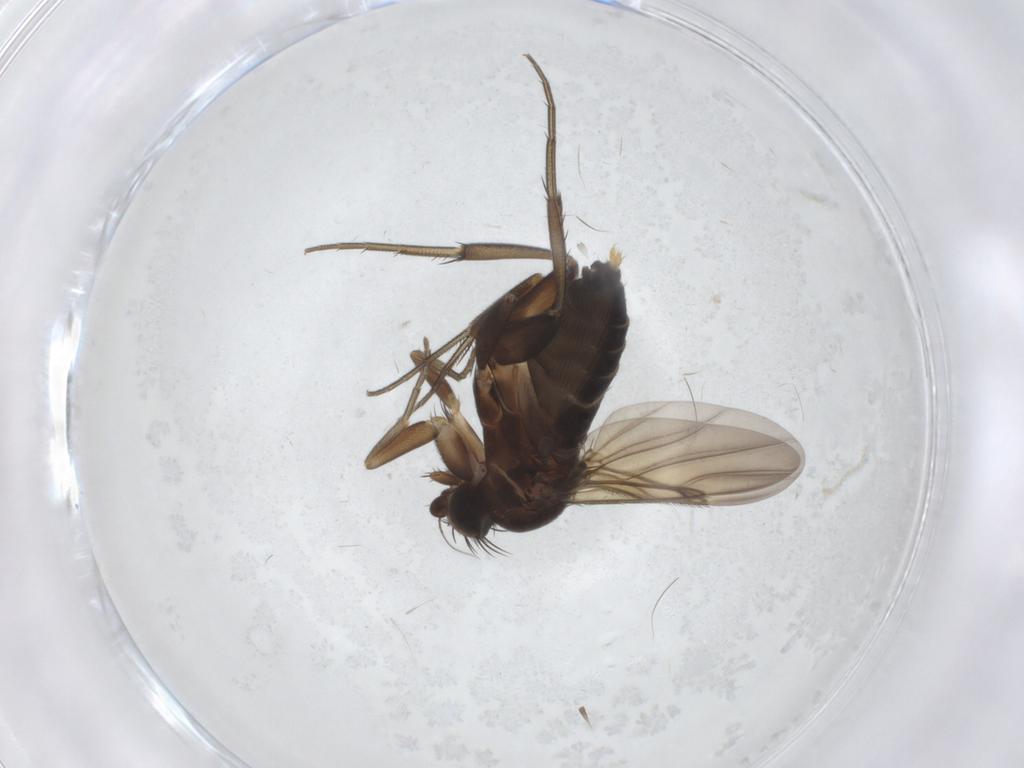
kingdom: Animalia
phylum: Arthropoda
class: Insecta
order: Diptera
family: Phoridae
